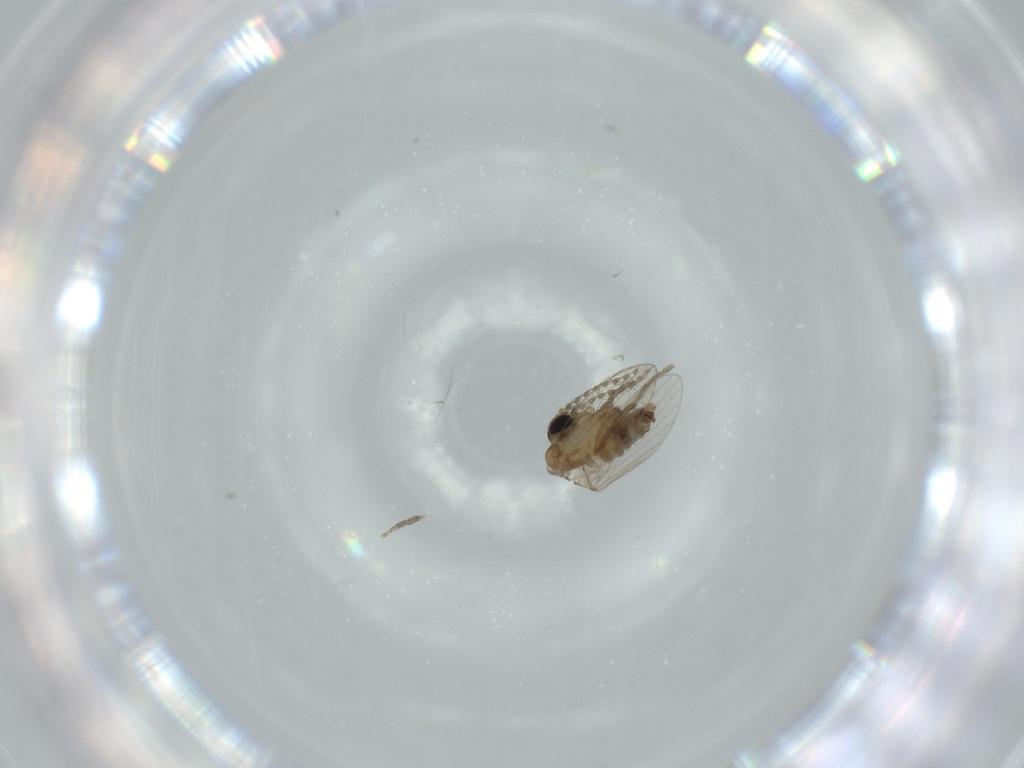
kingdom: Animalia
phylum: Arthropoda
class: Insecta
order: Diptera
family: Psychodidae
